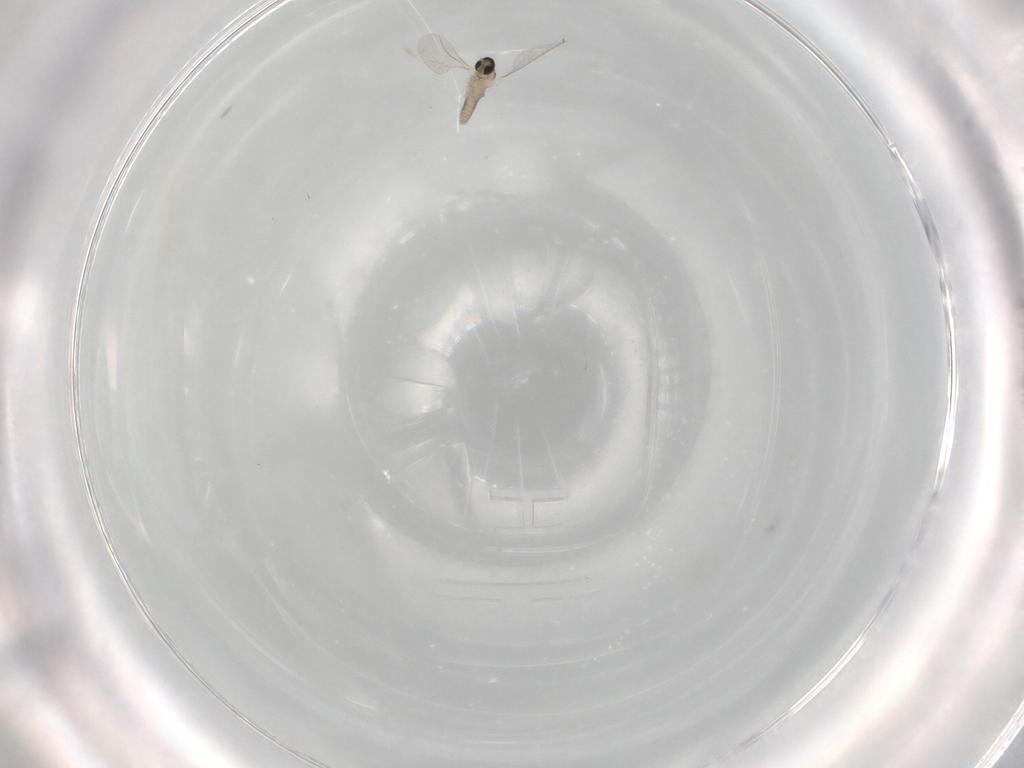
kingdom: Animalia
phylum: Arthropoda
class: Insecta
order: Diptera
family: Cecidomyiidae
